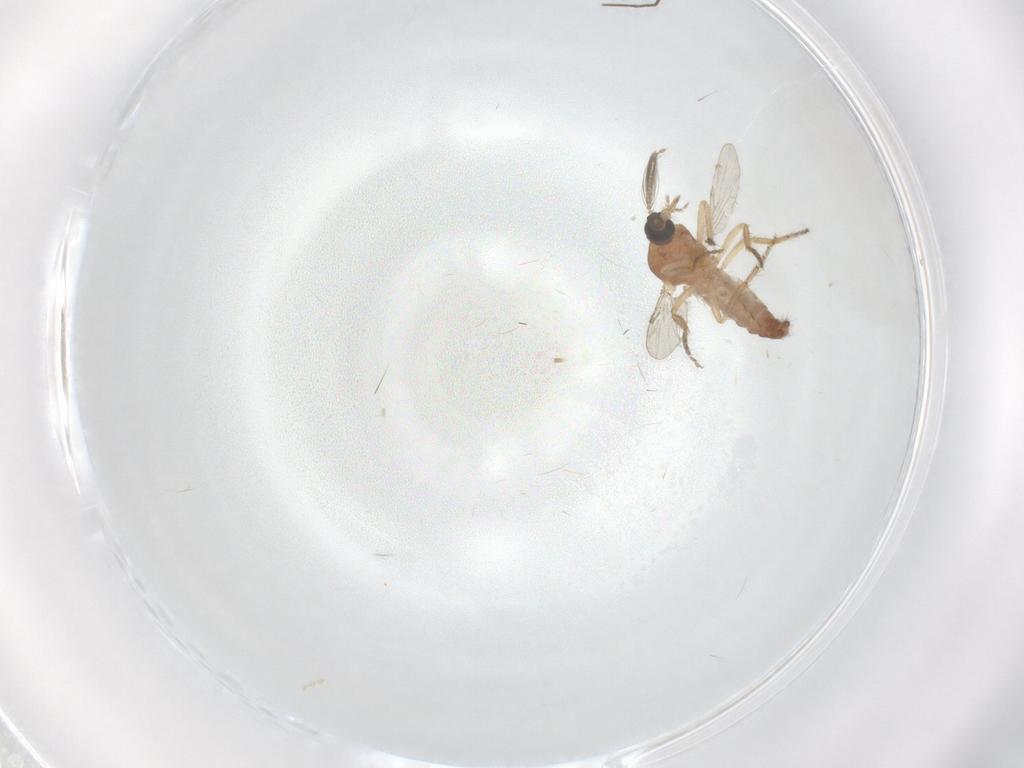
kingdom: Animalia
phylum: Arthropoda
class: Insecta
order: Diptera
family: Ceratopogonidae
